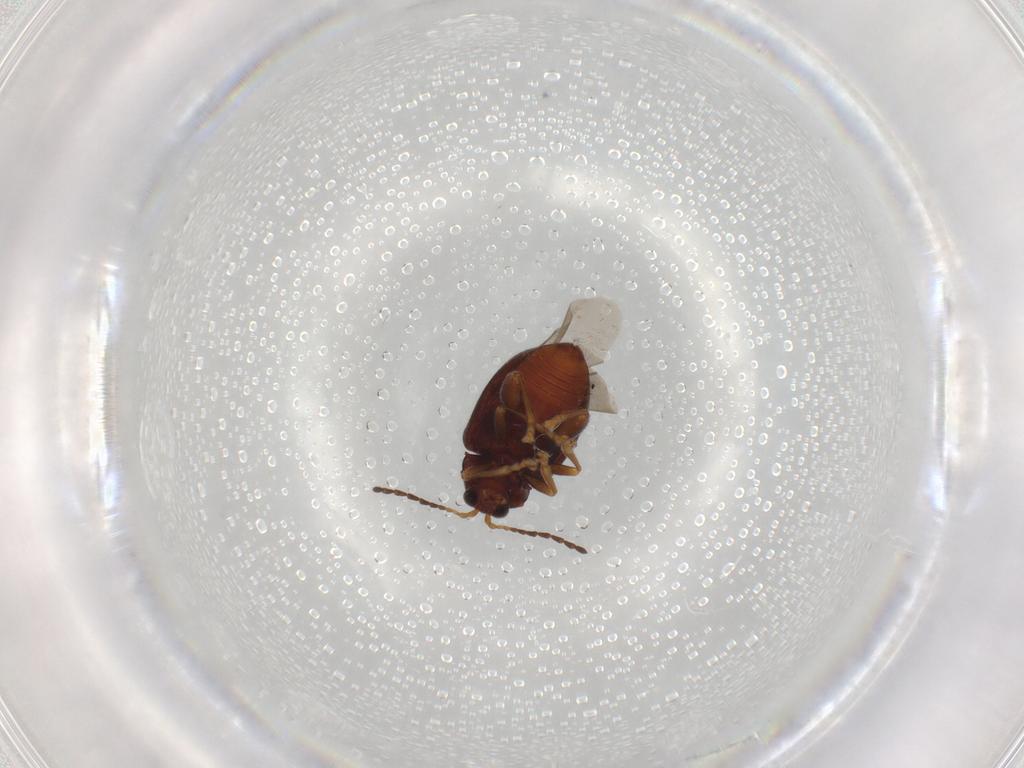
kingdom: Animalia
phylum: Arthropoda
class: Insecta
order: Coleoptera
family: Chrysomelidae
